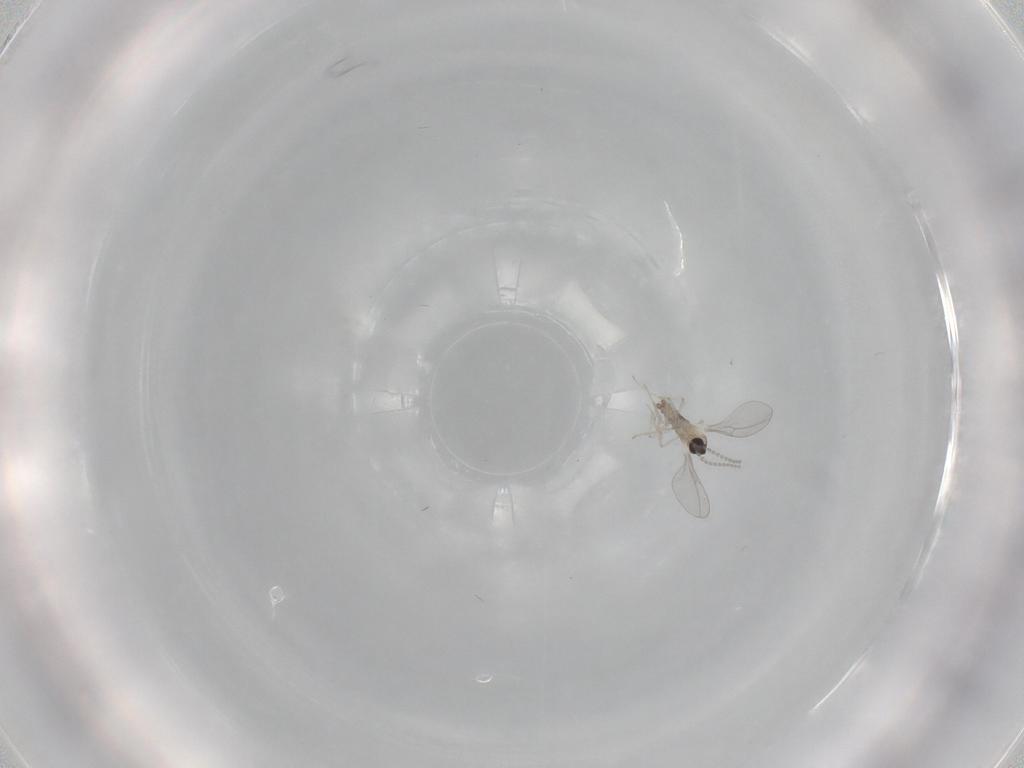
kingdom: Animalia
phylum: Arthropoda
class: Insecta
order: Diptera
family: Cecidomyiidae
